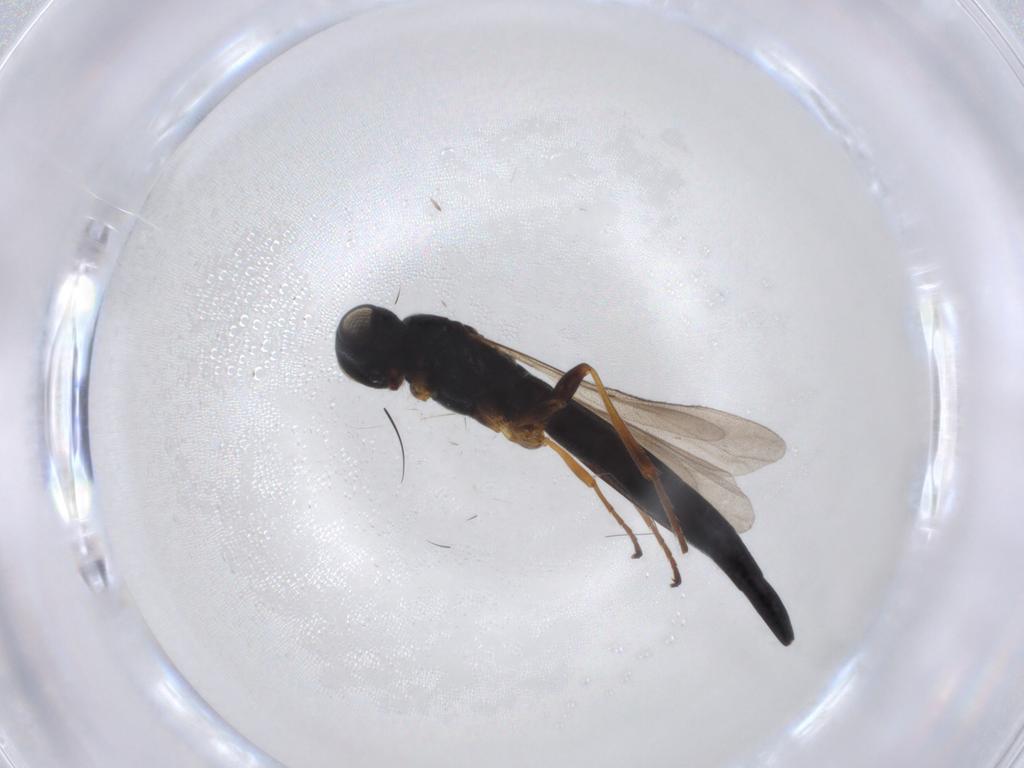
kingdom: Animalia
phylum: Arthropoda
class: Insecta
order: Hymenoptera
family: Scelionidae
